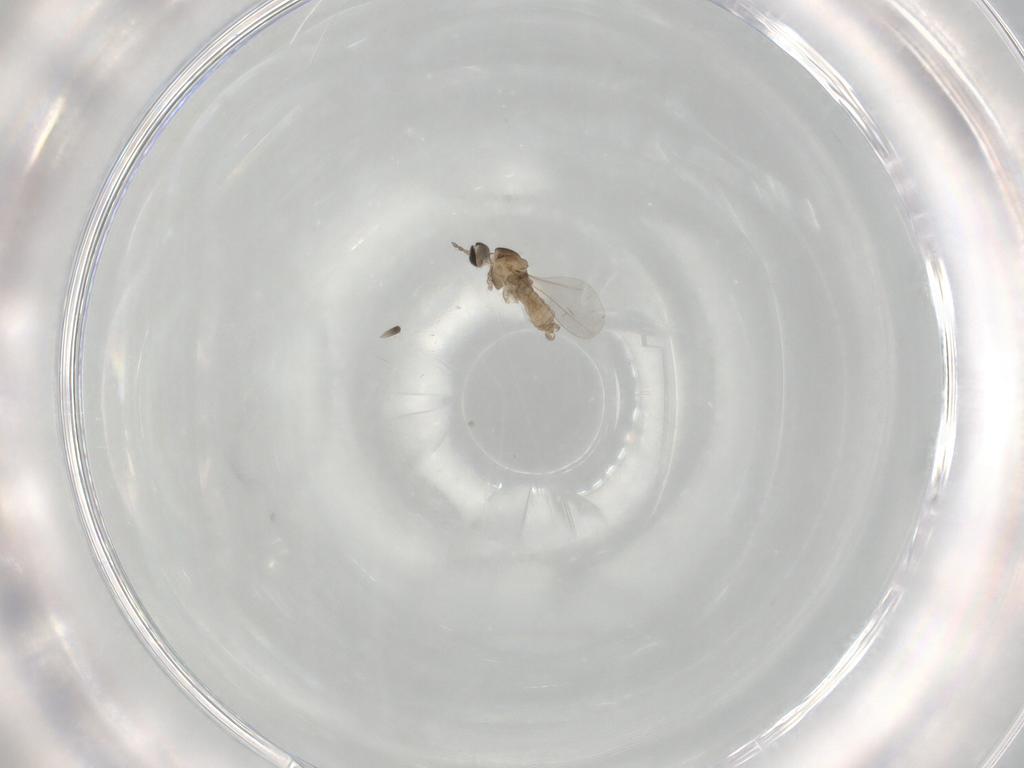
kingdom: Animalia
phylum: Arthropoda
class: Insecta
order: Diptera
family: Cecidomyiidae
